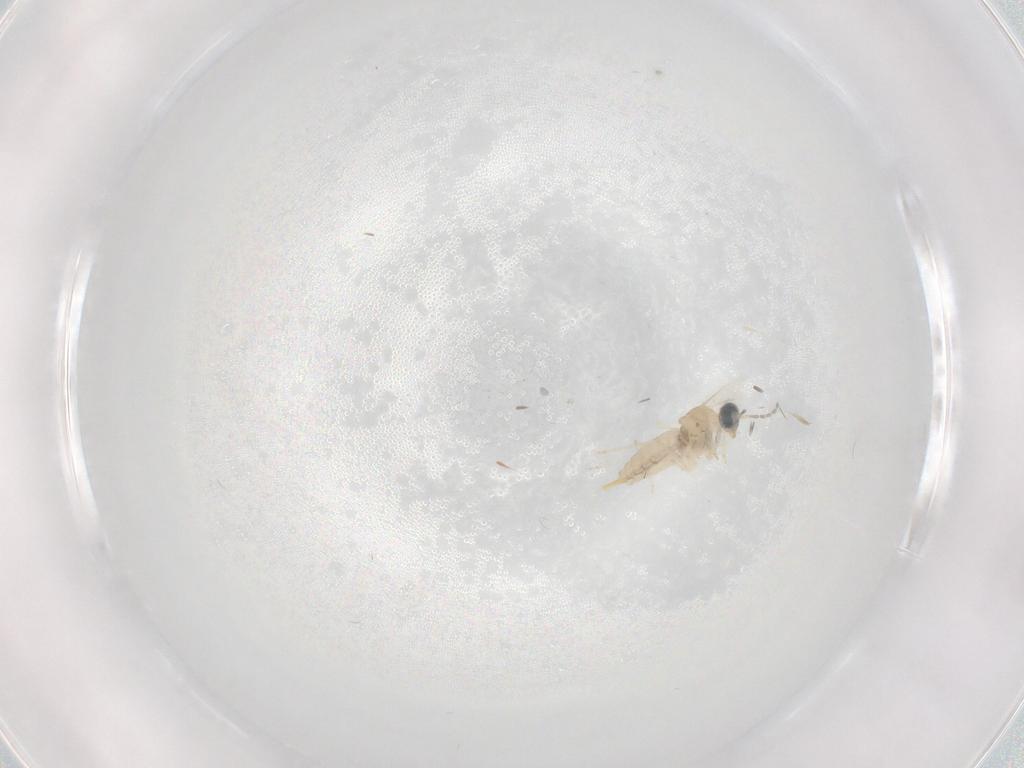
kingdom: Animalia
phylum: Arthropoda
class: Insecta
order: Diptera
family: Cecidomyiidae
